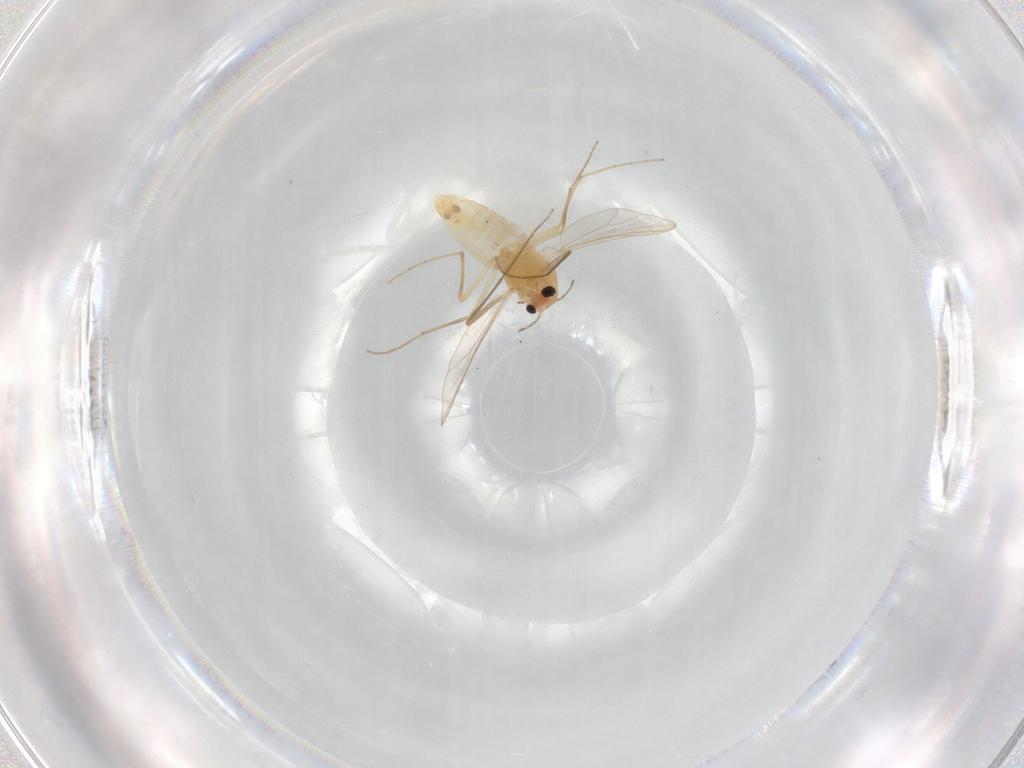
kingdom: Animalia
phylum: Arthropoda
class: Insecta
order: Diptera
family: Chironomidae
